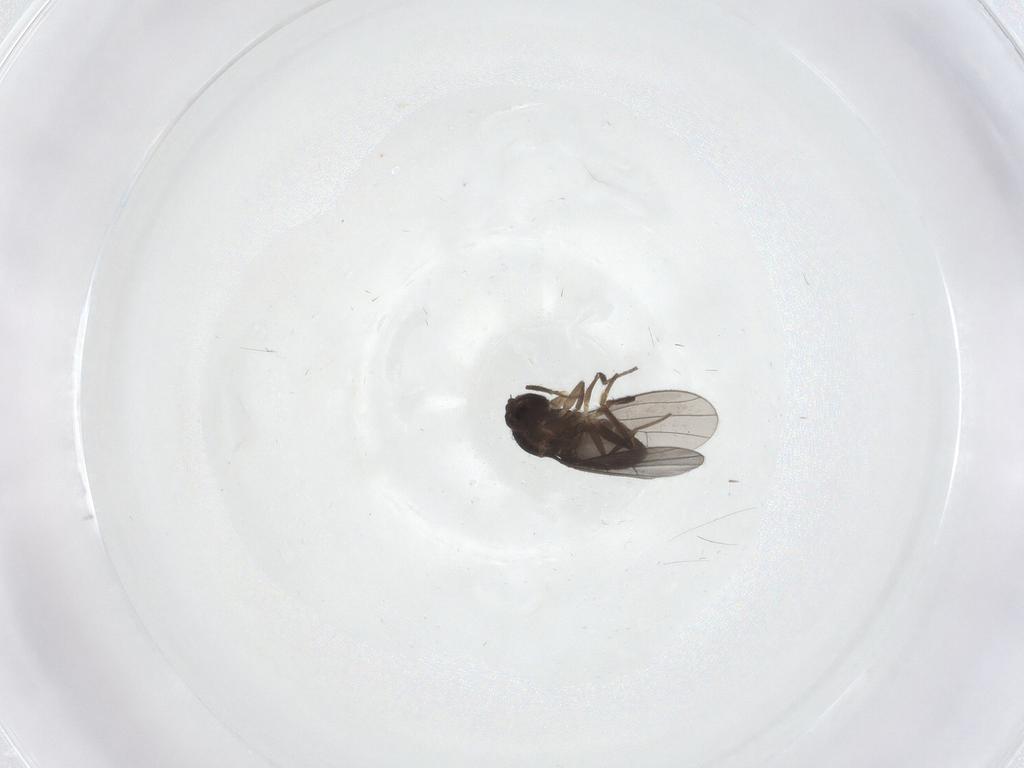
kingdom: Animalia
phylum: Arthropoda
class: Insecta
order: Diptera
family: Dolichopodidae
